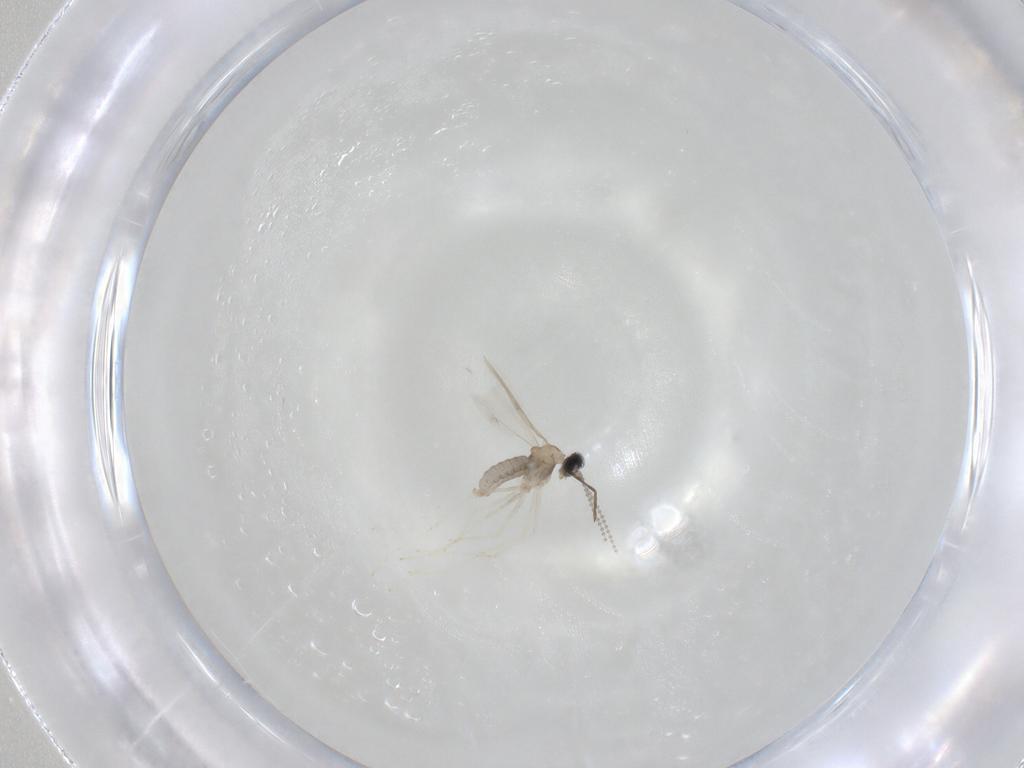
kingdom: Animalia
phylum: Arthropoda
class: Insecta
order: Diptera
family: Cecidomyiidae
